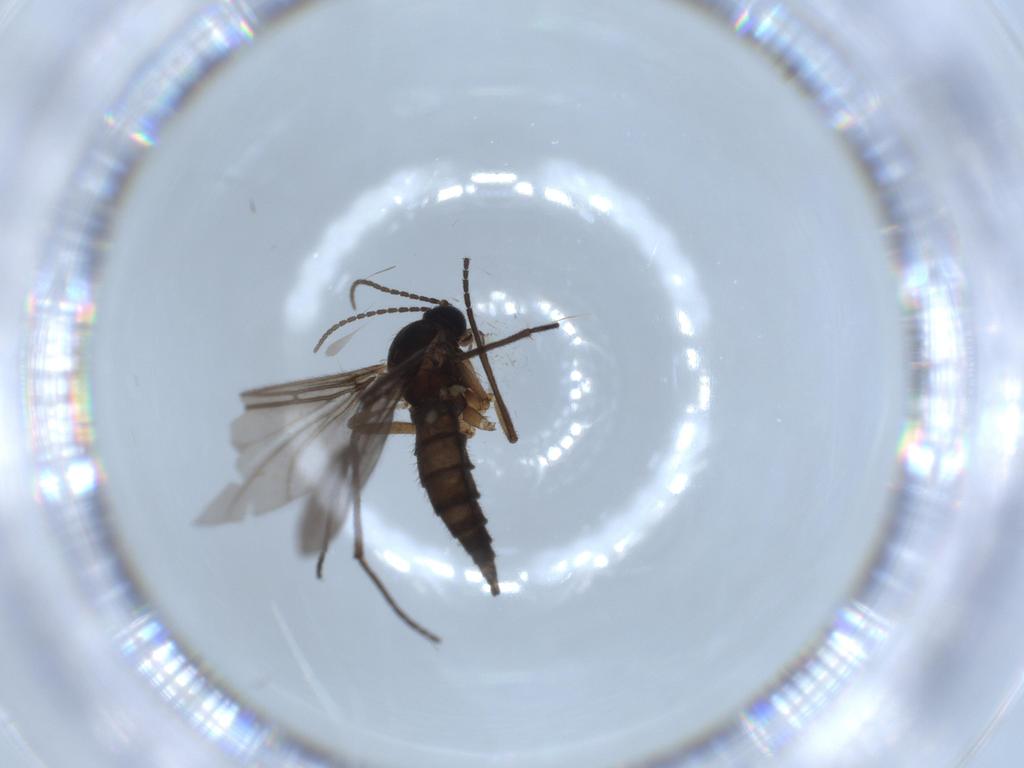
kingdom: Animalia
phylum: Arthropoda
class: Insecta
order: Diptera
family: Sciaridae
